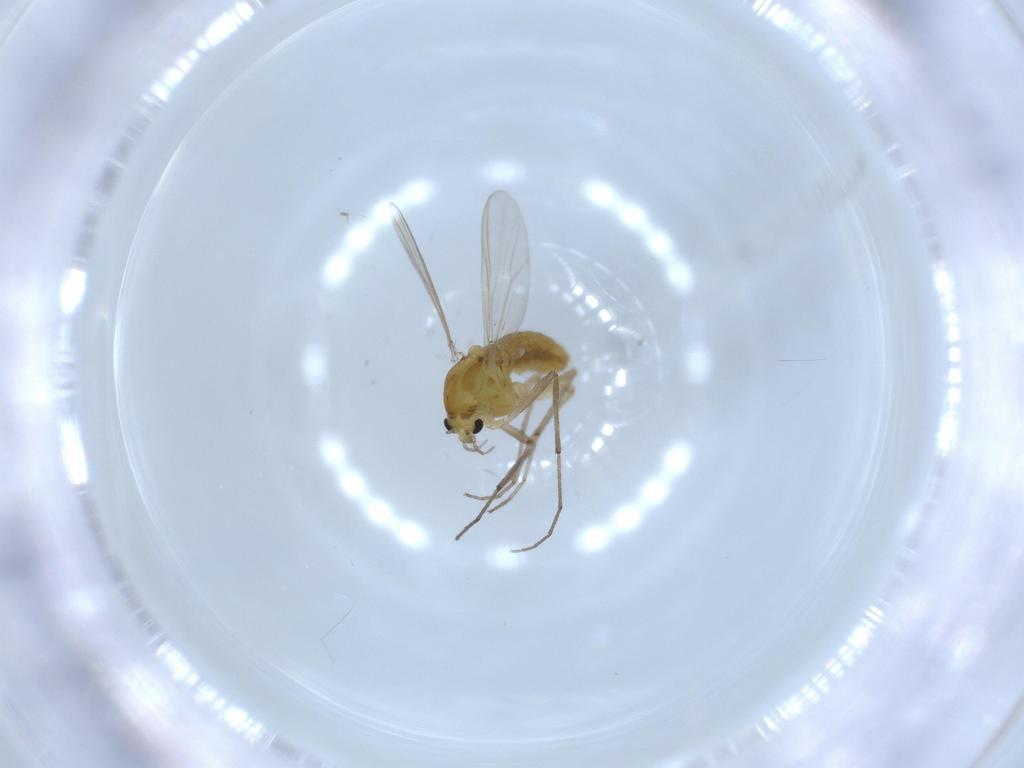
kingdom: Animalia
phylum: Arthropoda
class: Insecta
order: Diptera
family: Chironomidae
